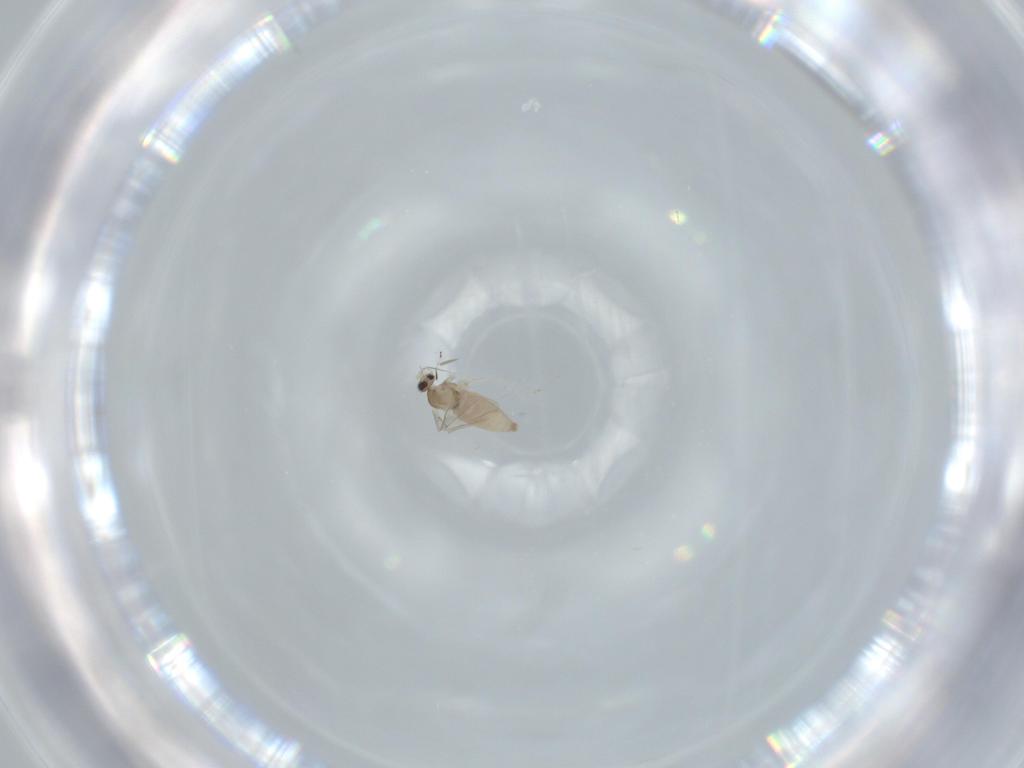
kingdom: Animalia
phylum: Arthropoda
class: Insecta
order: Diptera
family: Cecidomyiidae
